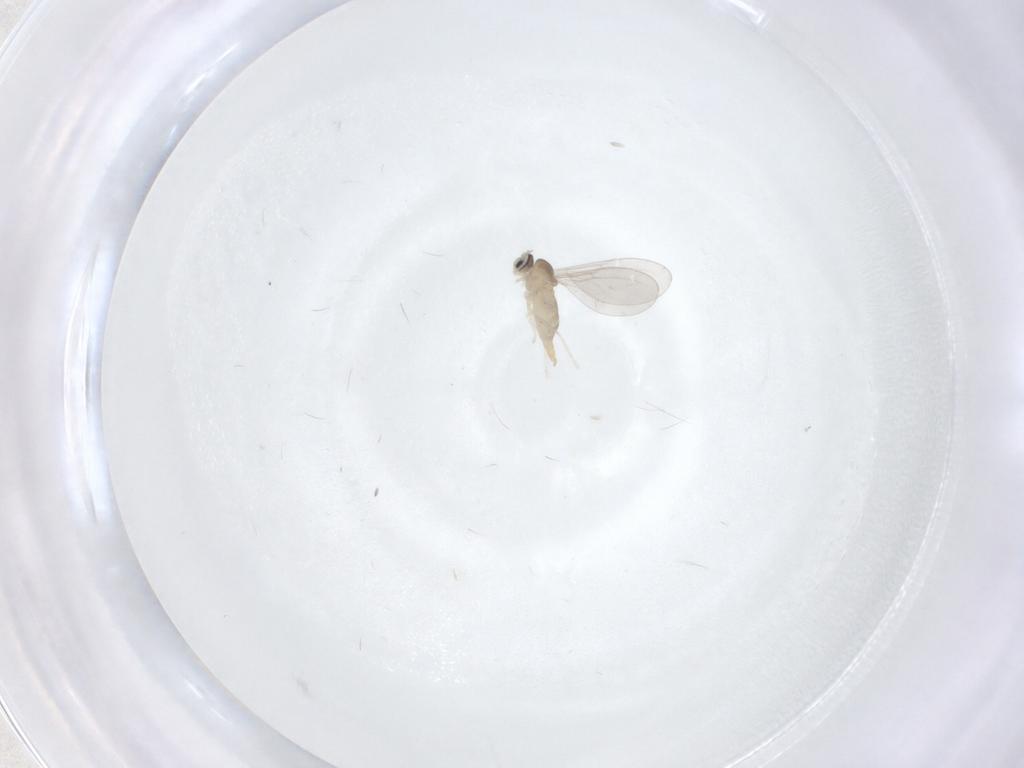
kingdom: Animalia
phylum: Arthropoda
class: Insecta
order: Diptera
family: Cecidomyiidae
